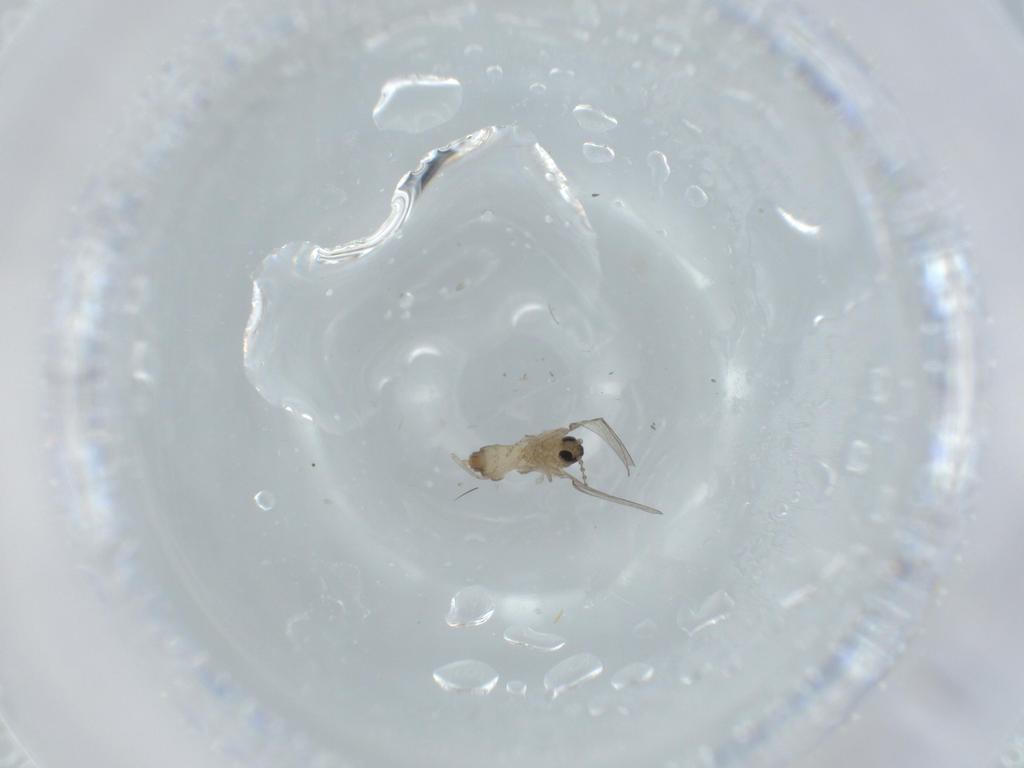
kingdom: Animalia
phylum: Arthropoda
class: Insecta
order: Diptera
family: Cecidomyiidae
